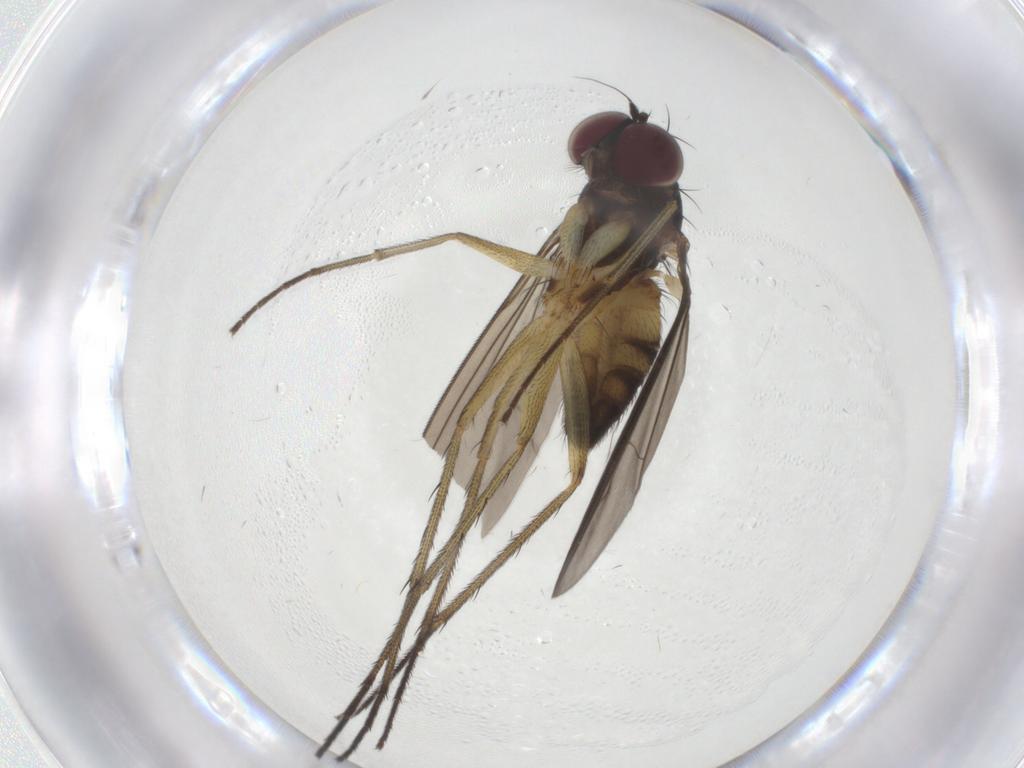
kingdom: Animalia
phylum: Arthropoda
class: Insecta
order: Diptera
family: Dolichopodidae
